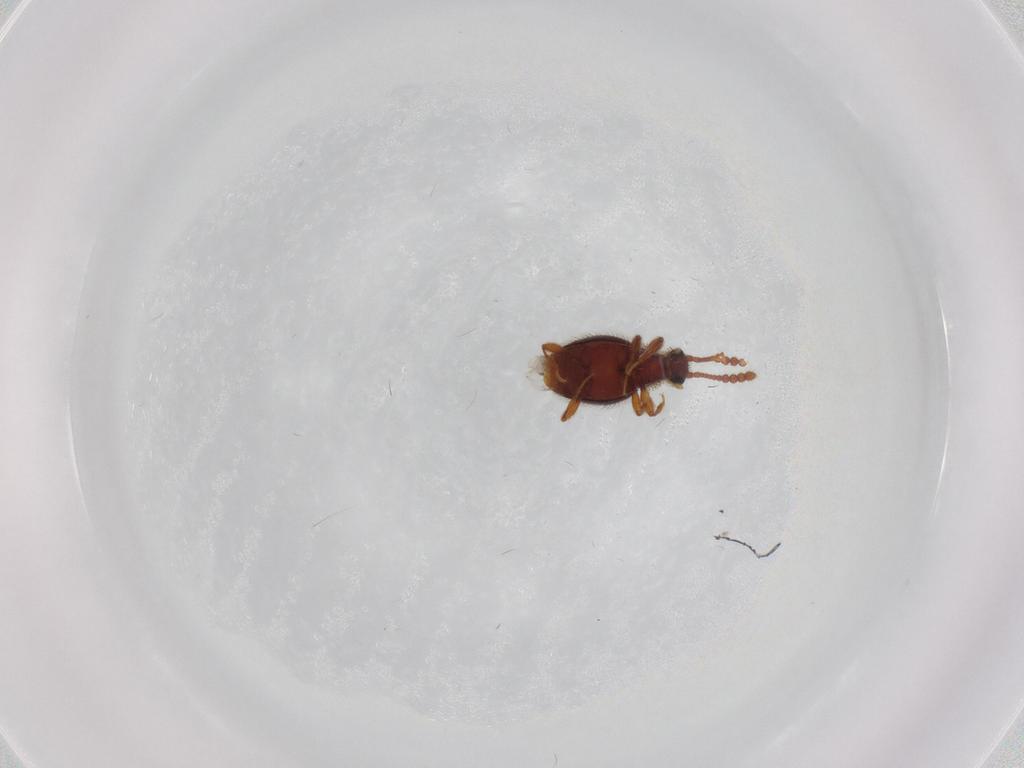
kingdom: Animalia
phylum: Arthropoda
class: Insecta
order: Coleoptera
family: Staphylinidae
